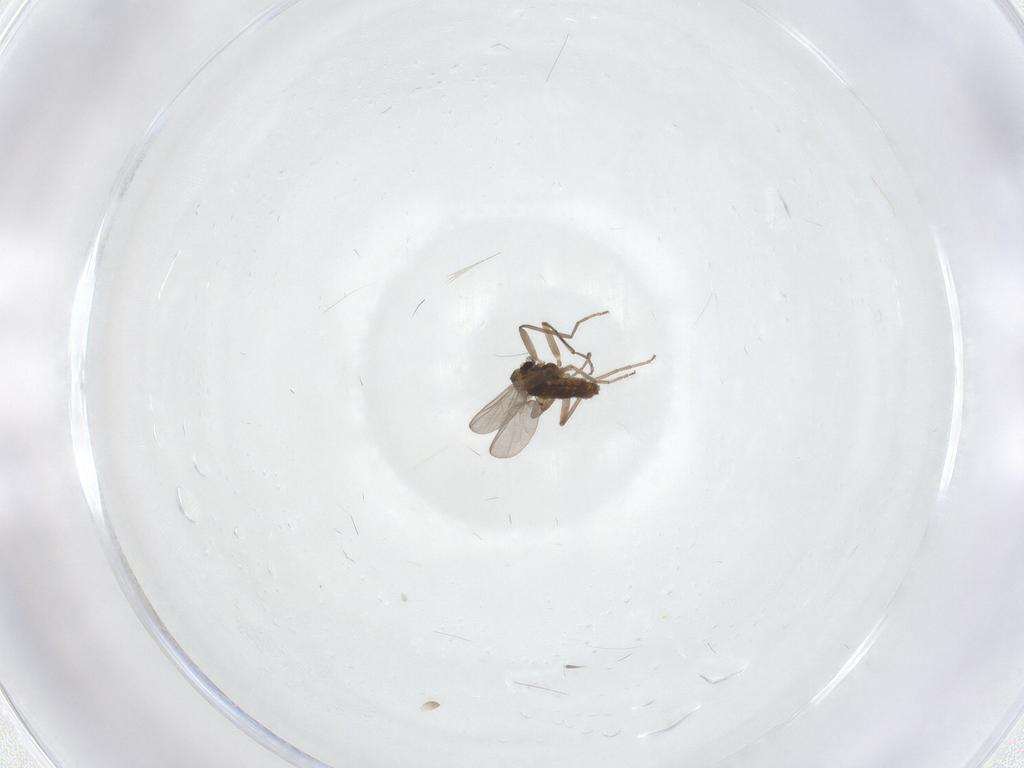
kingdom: Animalia
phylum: Arthropoda
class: Insecta
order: Diptera
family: Chironomidae
